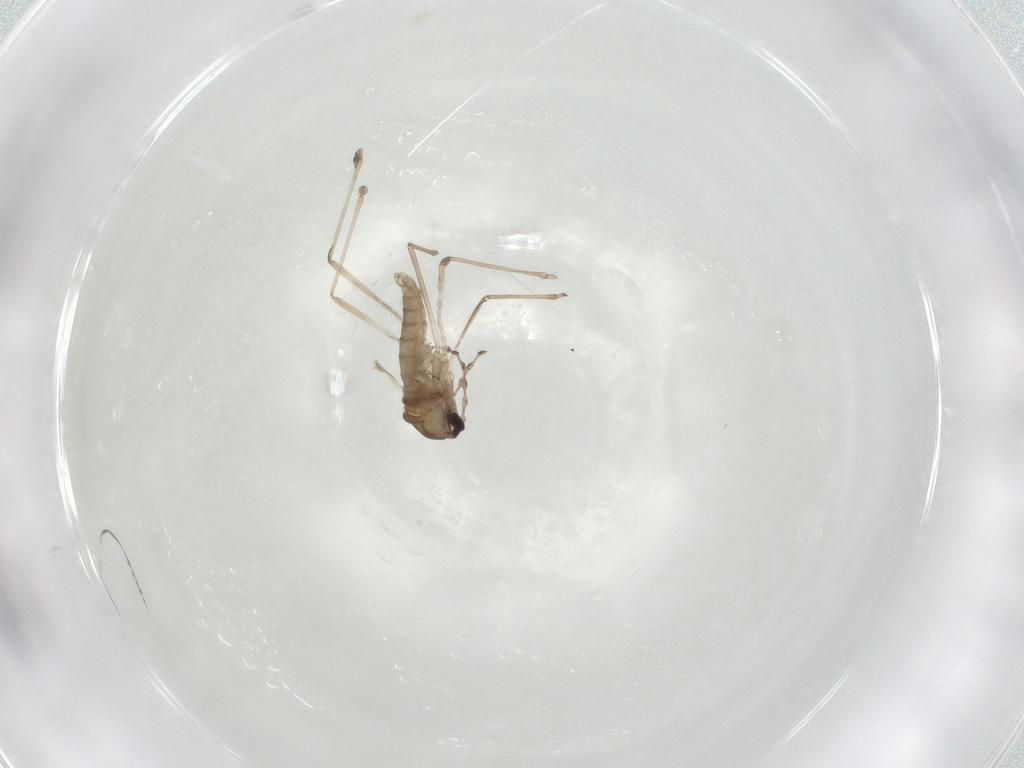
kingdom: Animalia
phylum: Arthropoda
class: Insecta
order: Diptera
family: Cecidomyiidae
